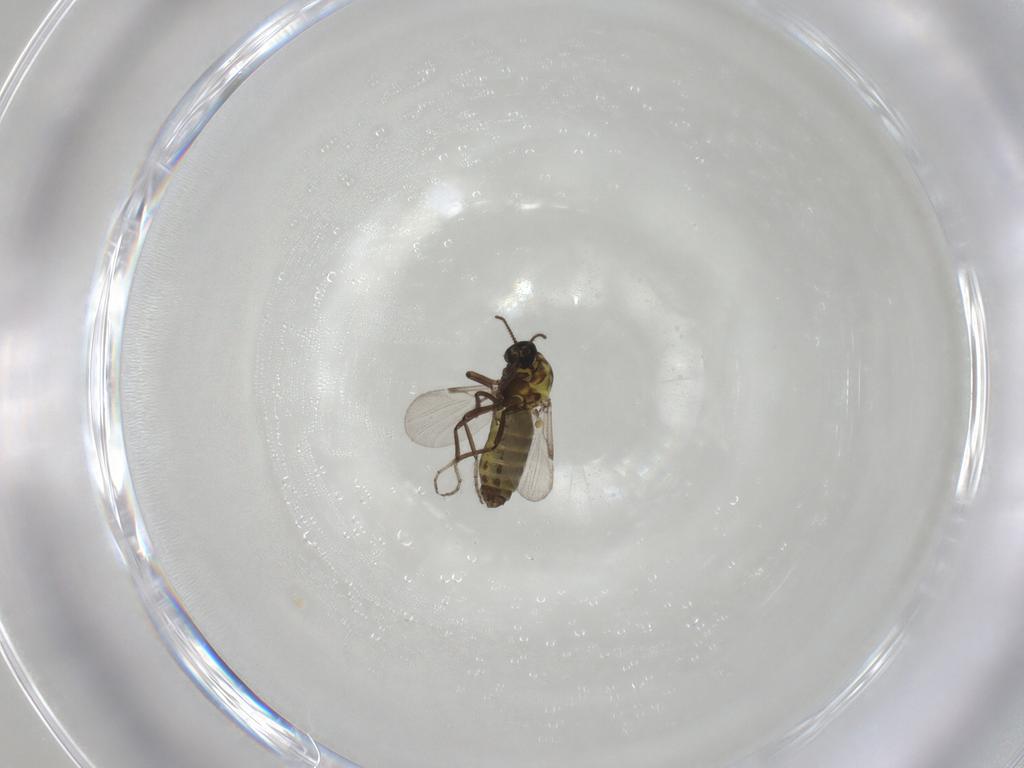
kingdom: Animalia
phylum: Arthropoda
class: Insecta
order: Diptera
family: Ceratopogonidae
